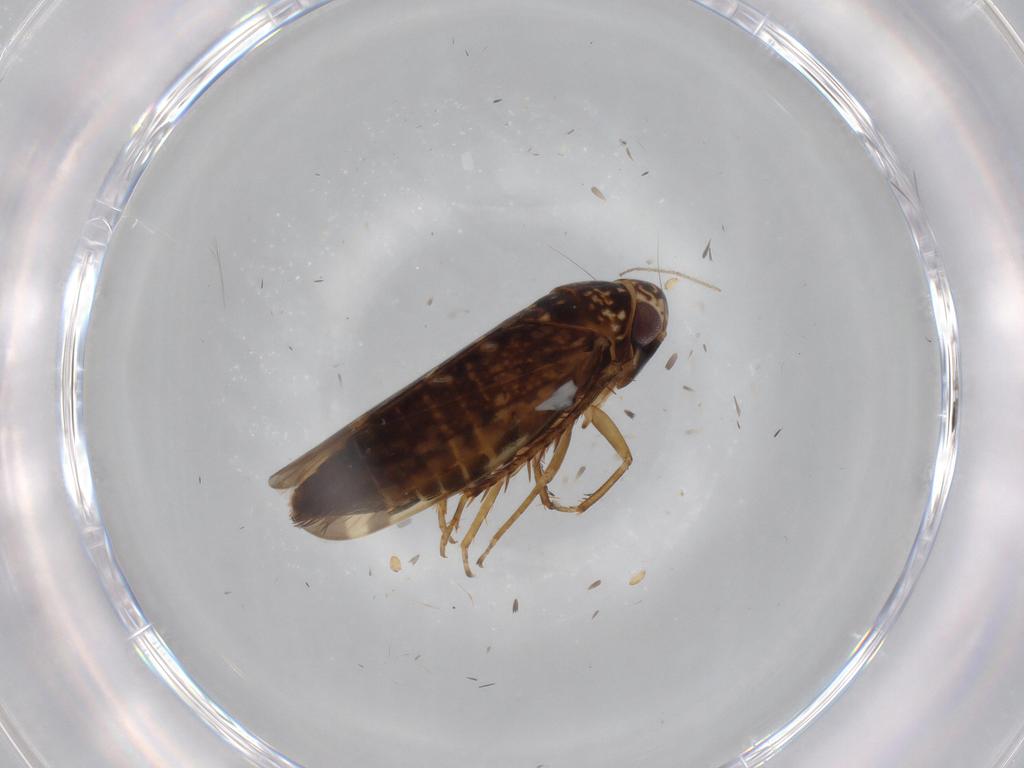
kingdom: Animalia
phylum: Arthropoda
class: Insecta
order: Hemiptera
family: Cicadellidae
